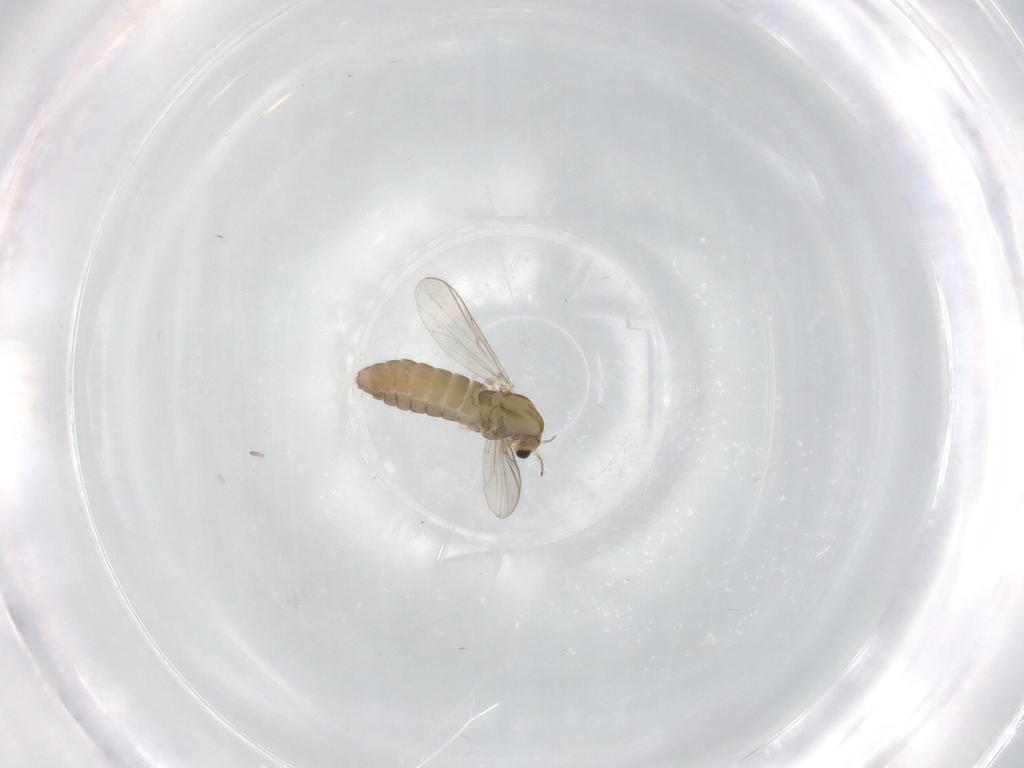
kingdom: Animalia
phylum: Arthropoda
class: Insecta
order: Diptera
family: Chironomidae
